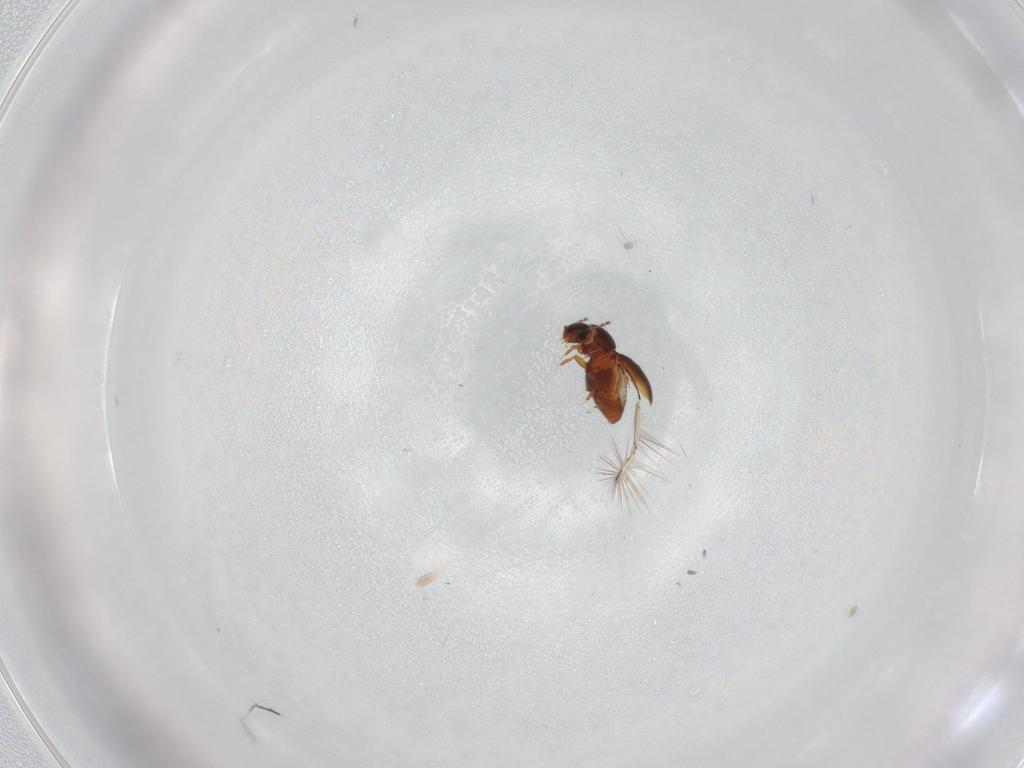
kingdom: Animalia
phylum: Arthropoda
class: Insecta
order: Coleoptera
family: Ptiliidae
